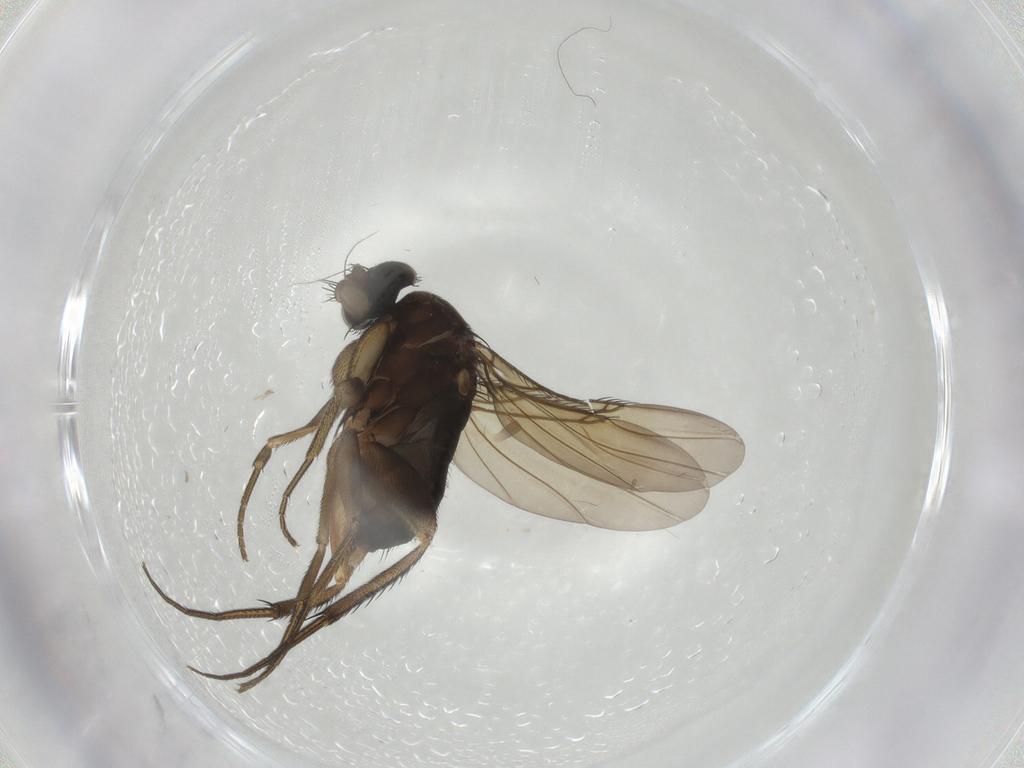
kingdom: Animalia
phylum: Arthropoda
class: Insecta
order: Diptera
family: Phoridae
